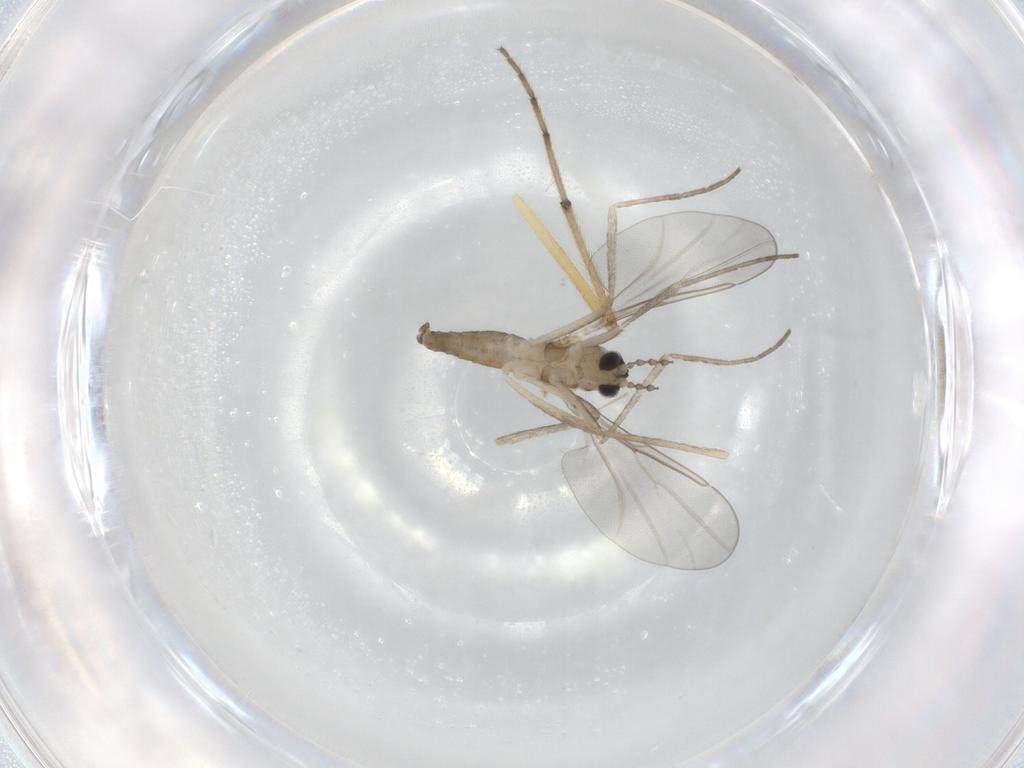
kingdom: Animalia
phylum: Arthropoda
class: Insecta
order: Diptera
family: Cecidomyiidae
